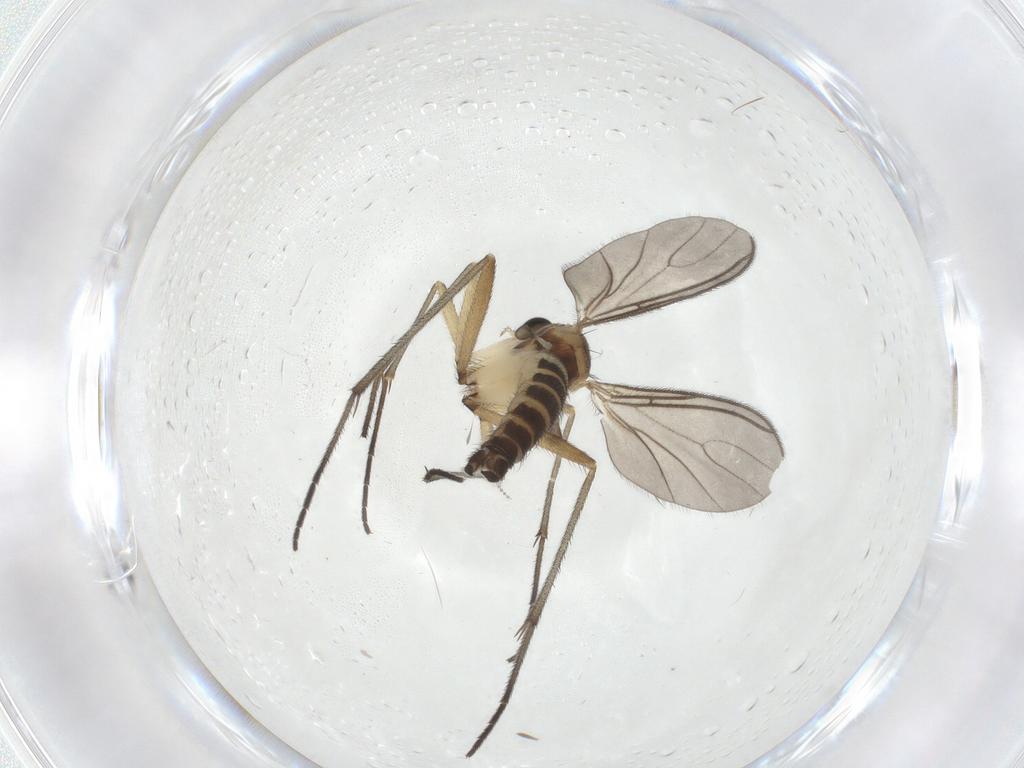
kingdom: Animalia
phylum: Arthropoda
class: Insecta
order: Diptera
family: Sciaridae
